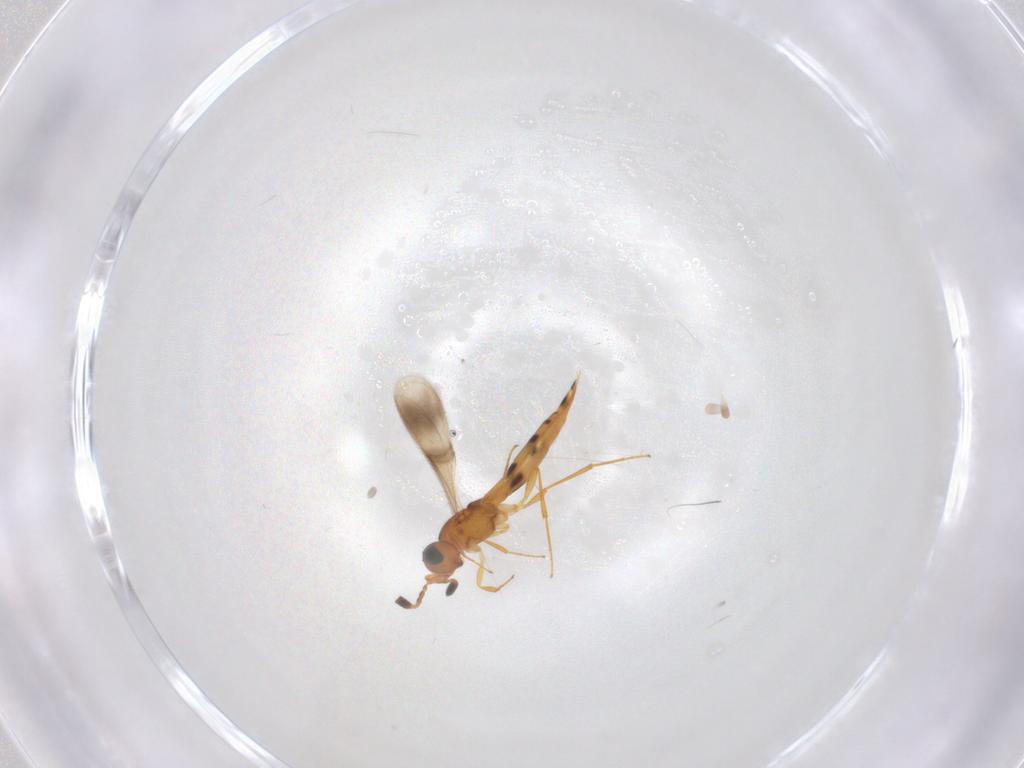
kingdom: Animalia
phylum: Arthropoda
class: Insecta
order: Hymenoptera
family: Scelionidae
